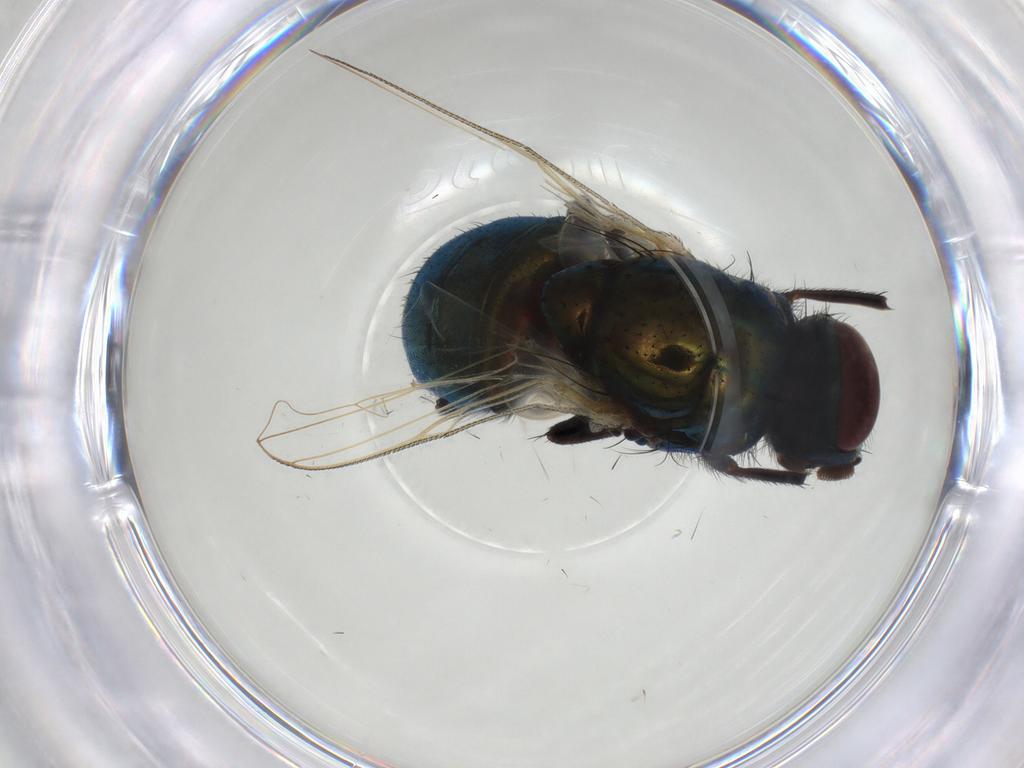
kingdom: Animalia
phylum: Arthropoda
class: Insecta
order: Diptera
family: Muscidae
